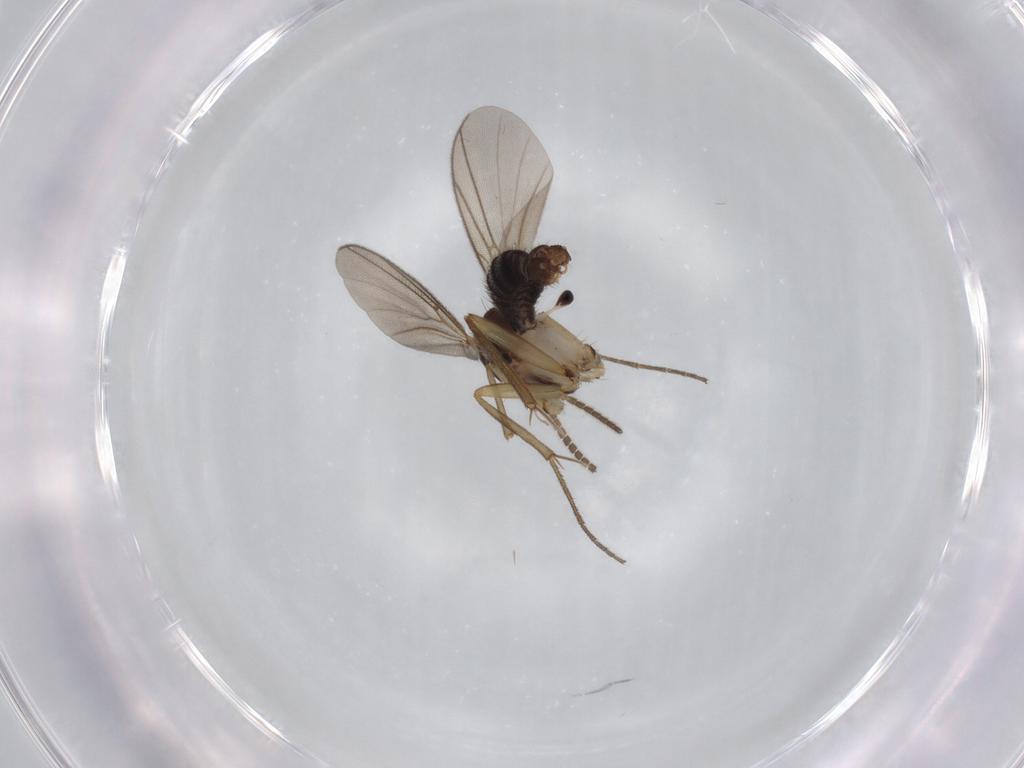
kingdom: Animalia
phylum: Arthropoda
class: Insecta
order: Diptera
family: Mycetophilidae
